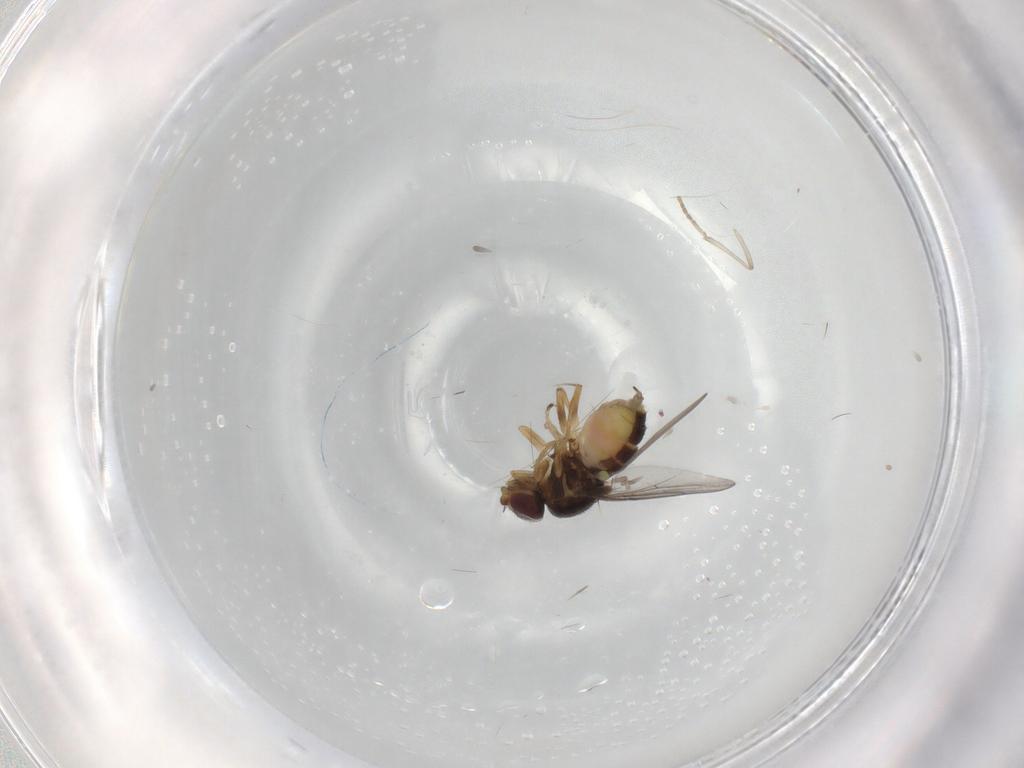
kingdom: Animalia
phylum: Arthropoda
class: Insecta
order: Diptera
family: Chloropidae
